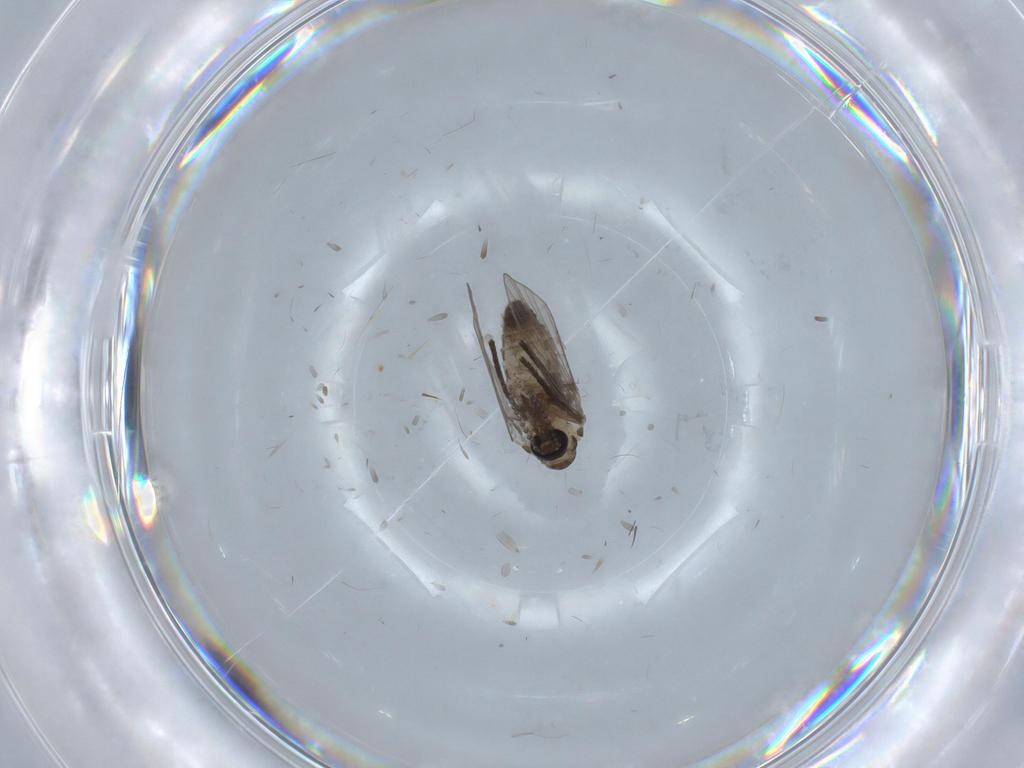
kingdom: Animalia
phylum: Arthropoda
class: Insecta
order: Diptera
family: Psychodidae
